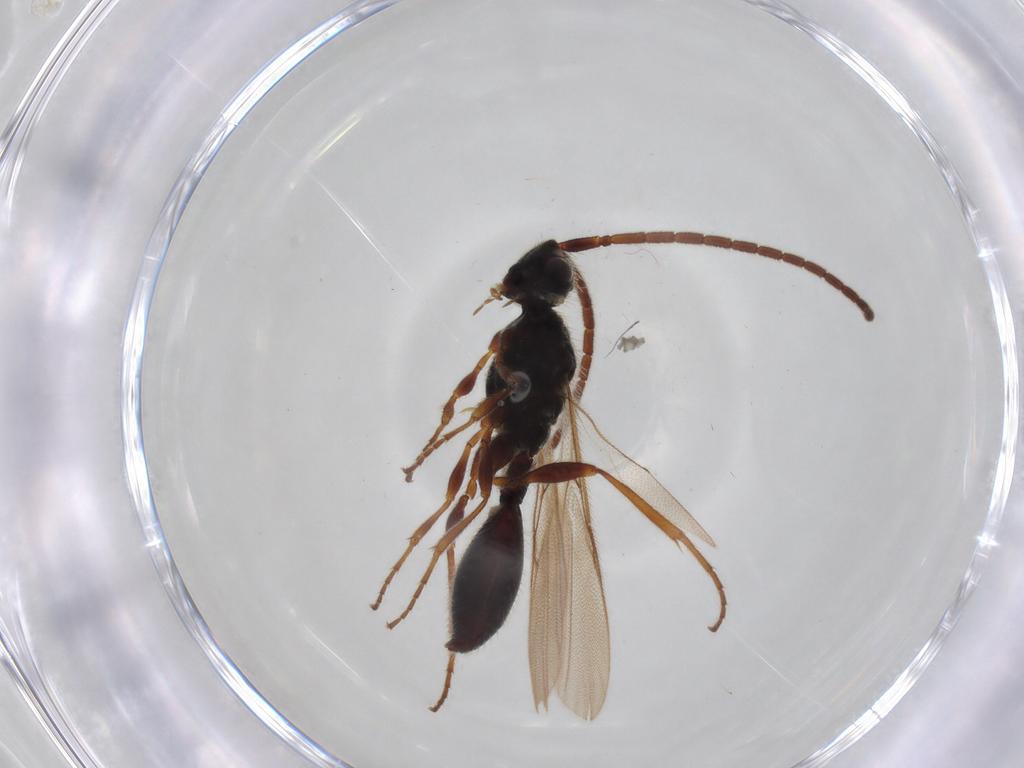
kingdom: Animalia
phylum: Arthropoda
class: Insecta
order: Hymenoptera
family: Diapriidae
